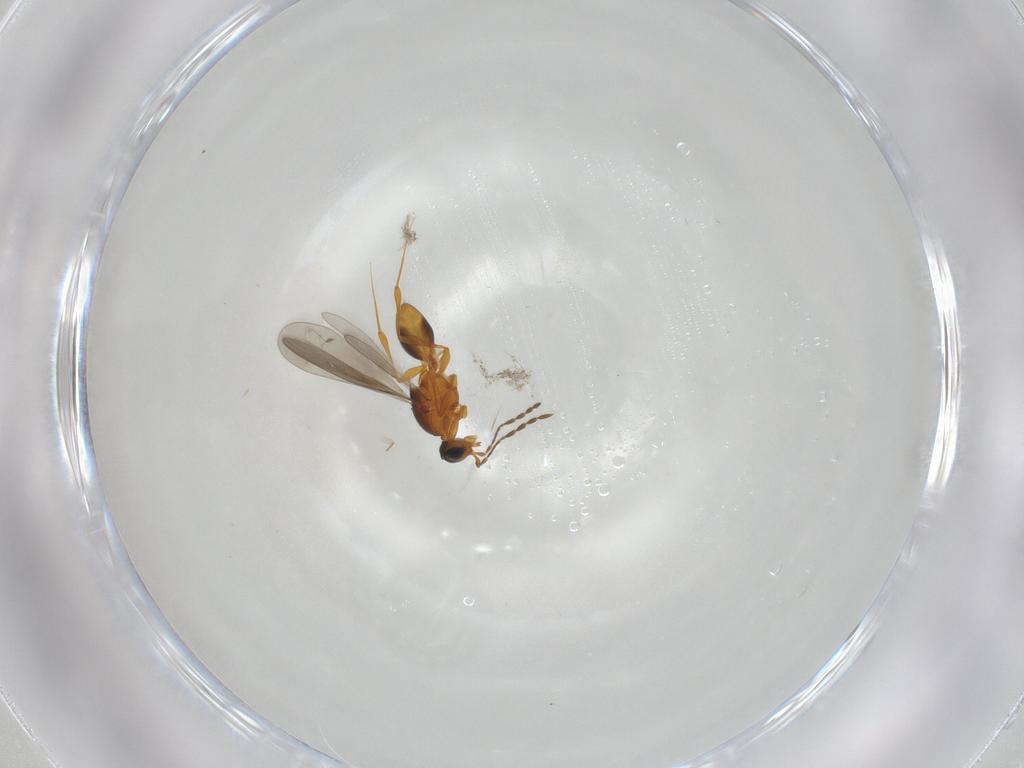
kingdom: Animalia
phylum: Arthropoda
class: Insecta
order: Hymenoptera
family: Platygastridae
